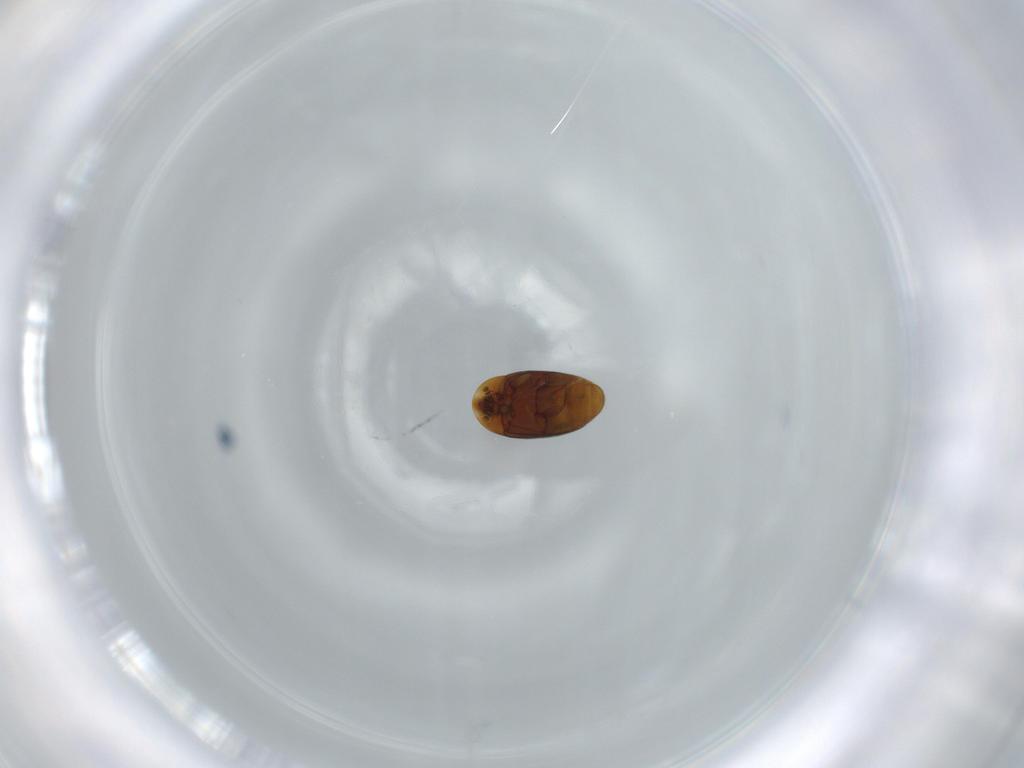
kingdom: Animalia
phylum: Arthropoda
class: Insecta
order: Coleoptera
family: Corylophidae
